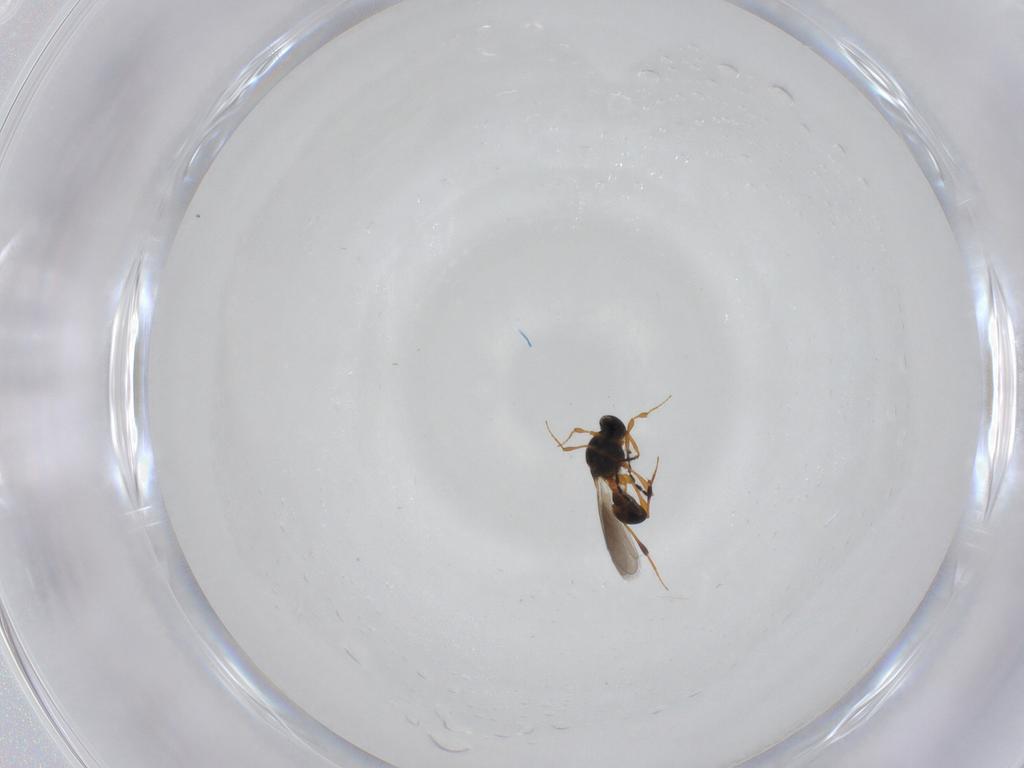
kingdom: Animalia
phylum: Arthropoda
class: Insecta
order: Hymenoptera
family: Platygastridae
